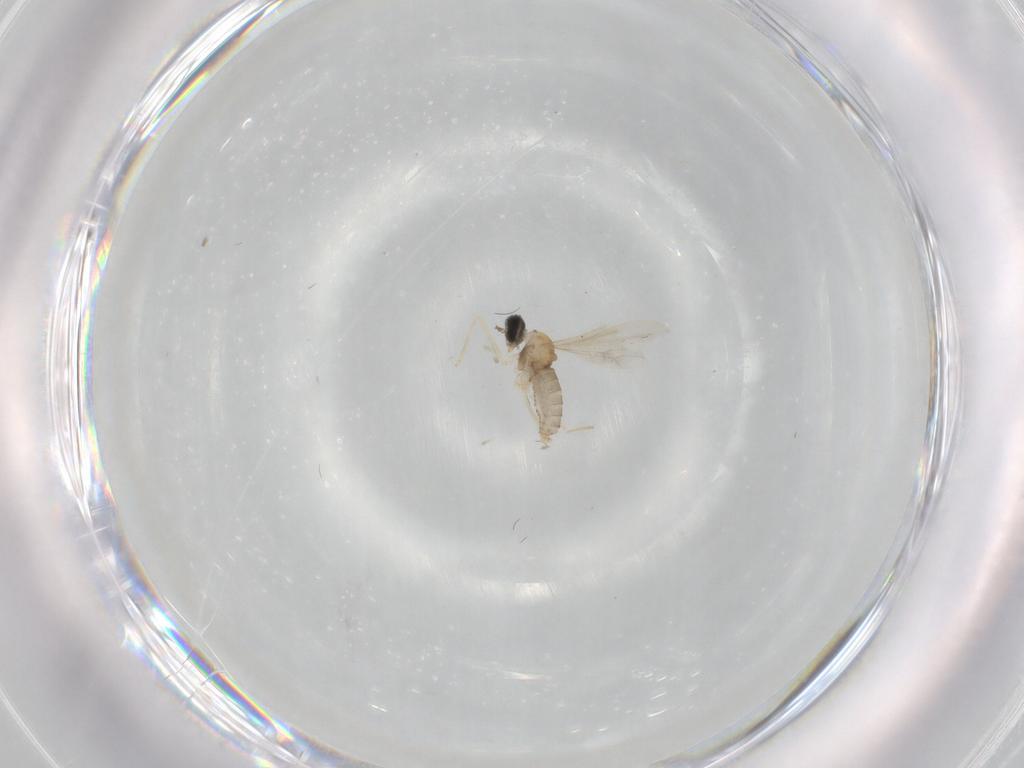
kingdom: Animalia
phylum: Arthropoda
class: Insecta
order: Diptera
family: Cecidomyiidae
